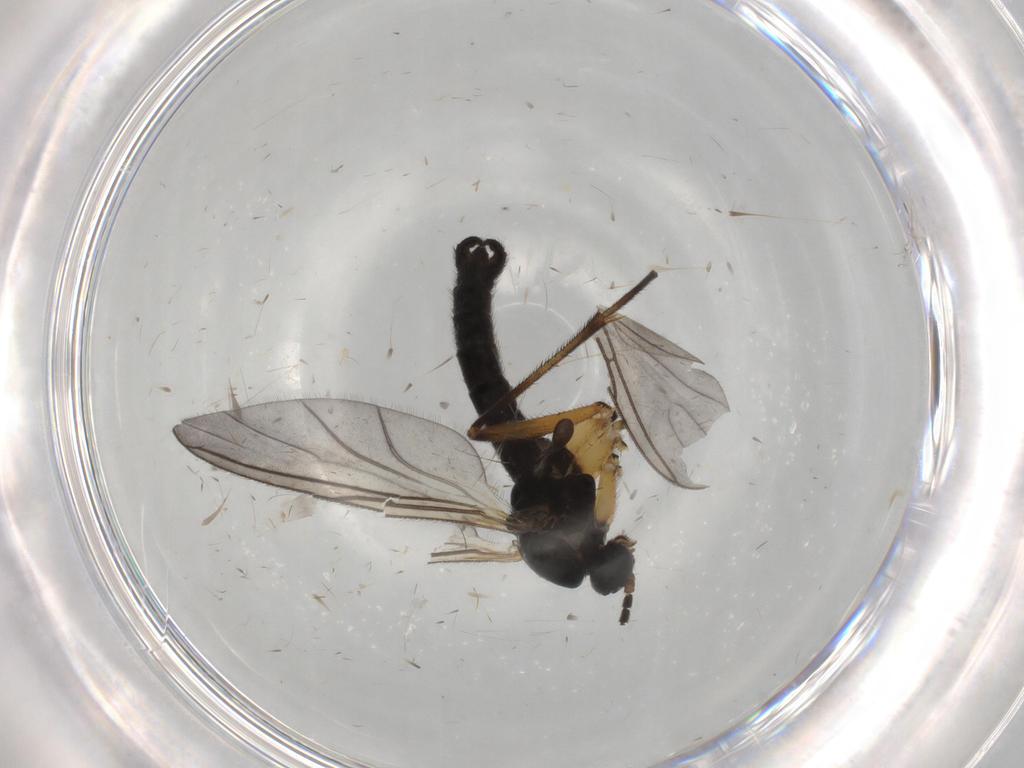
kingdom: Animalia
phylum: Arthropoda
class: Insecta
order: Diptera
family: Sciaridae
